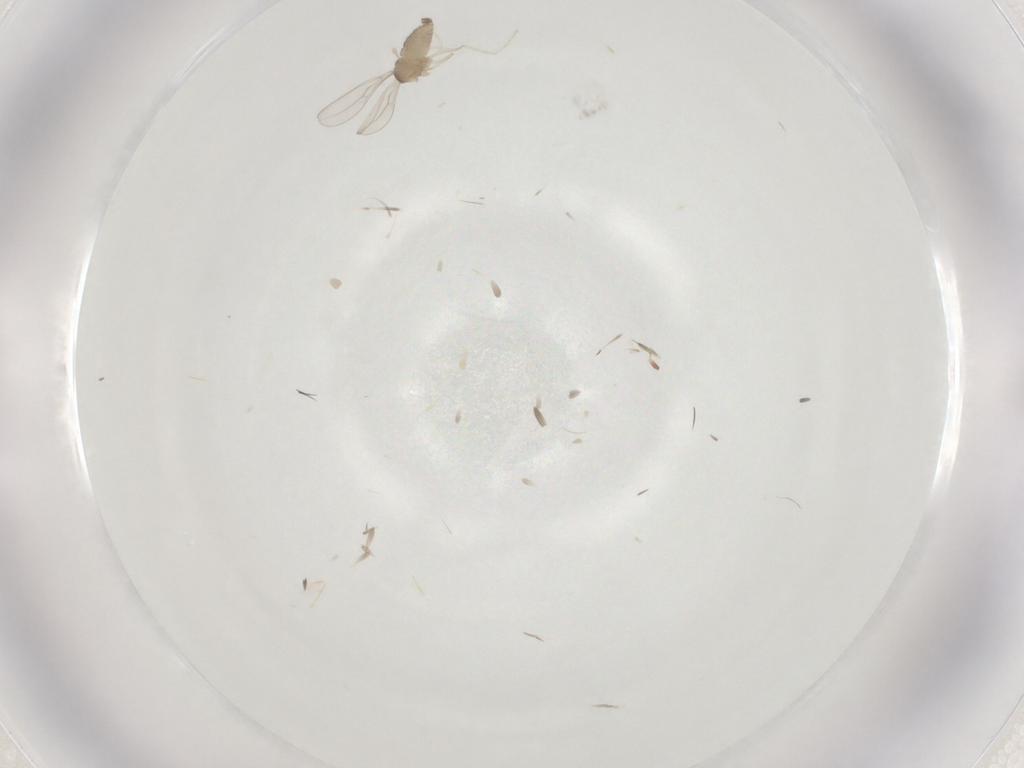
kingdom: Animalia
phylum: Arthropoda
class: Insecta
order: Diptera
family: Cecidomyiidae
